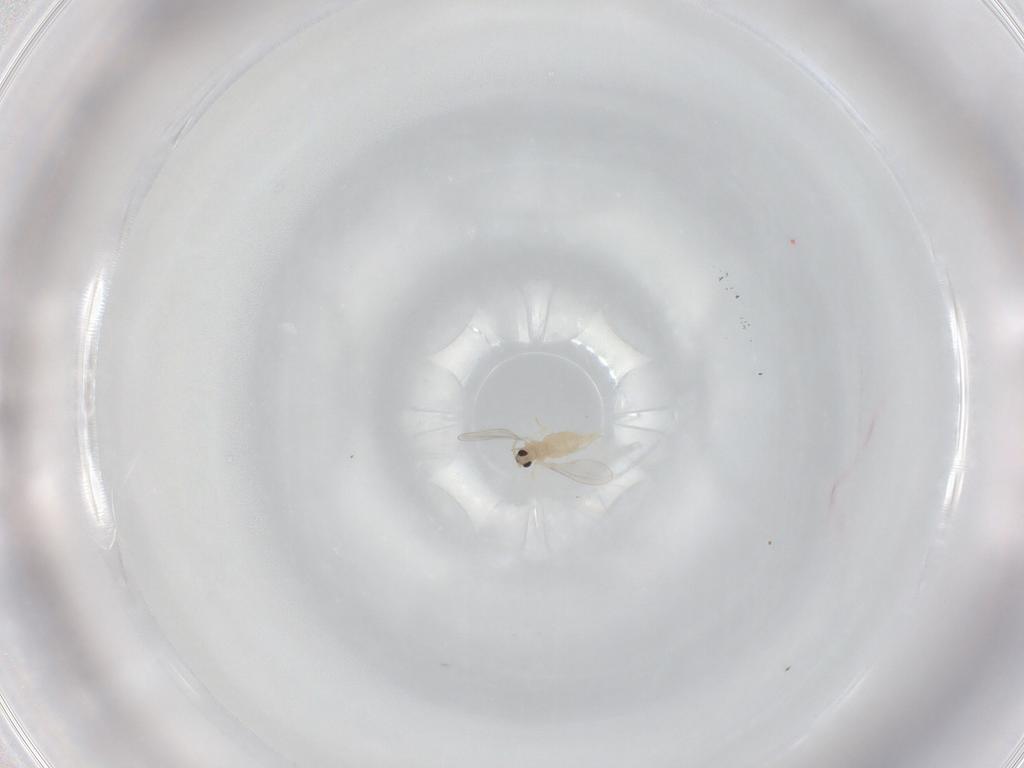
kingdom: Animalia
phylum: Arthropoda
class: Insecta
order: Diptera
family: Cecidomyiidae
